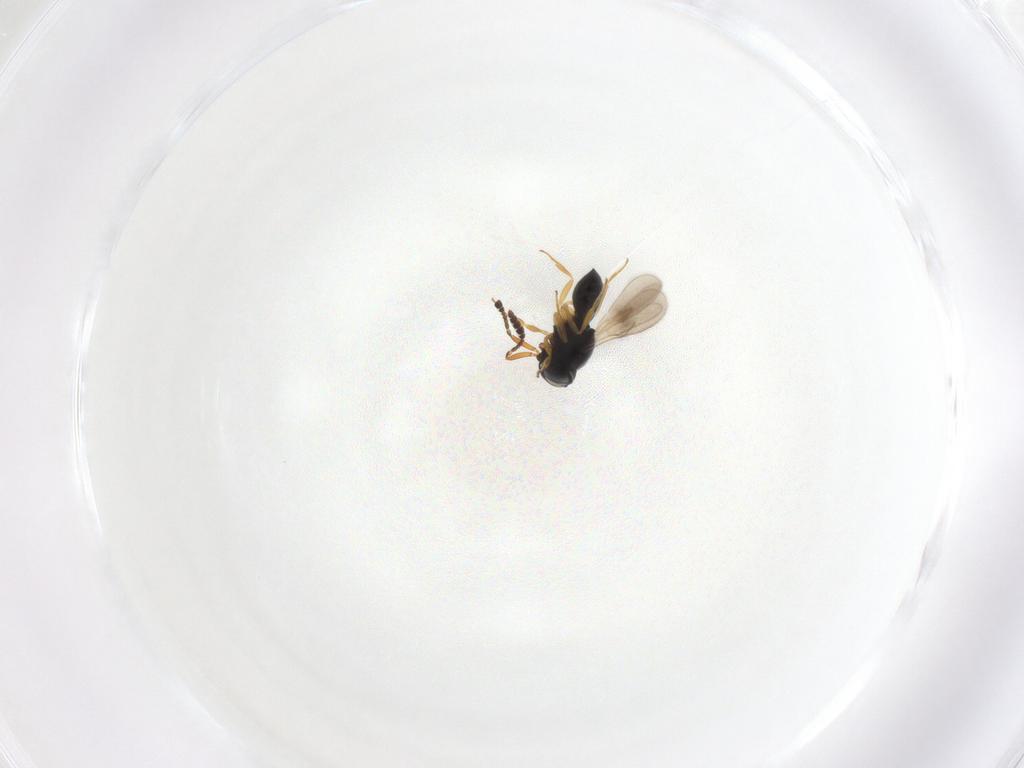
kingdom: Animalia
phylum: Arthropoda
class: Insecta
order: Hymenoptera
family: Scelionidae
